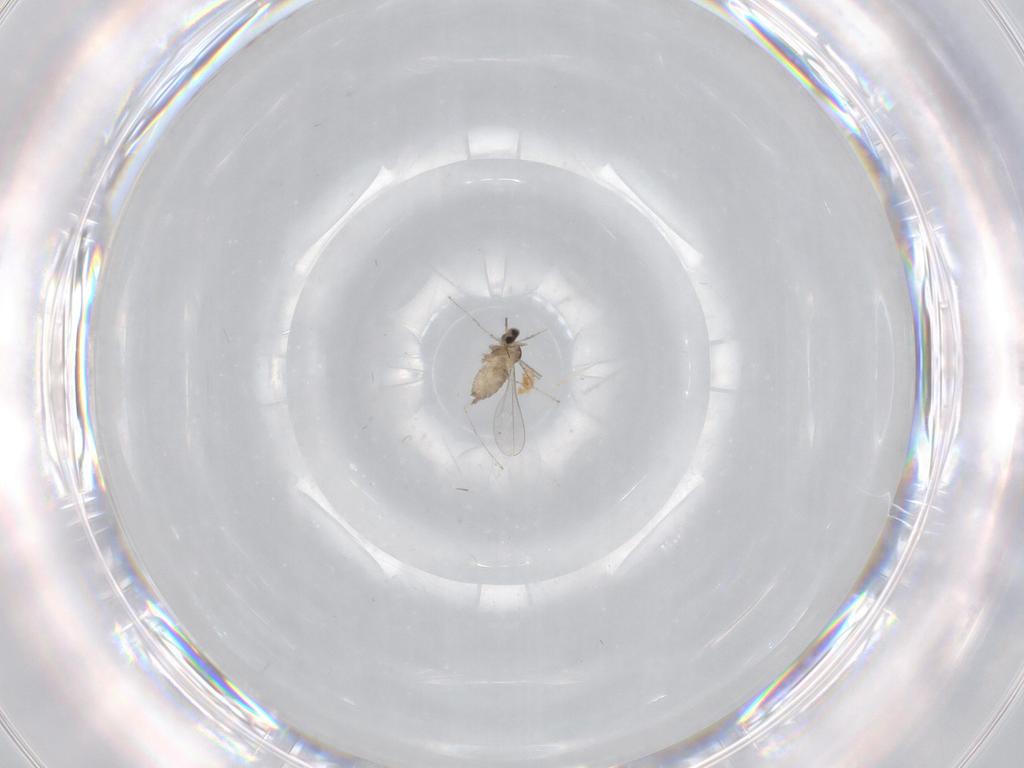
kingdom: Animalia
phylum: Arthropoda
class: Insecta
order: Diptera
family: Cecidomyiidae
